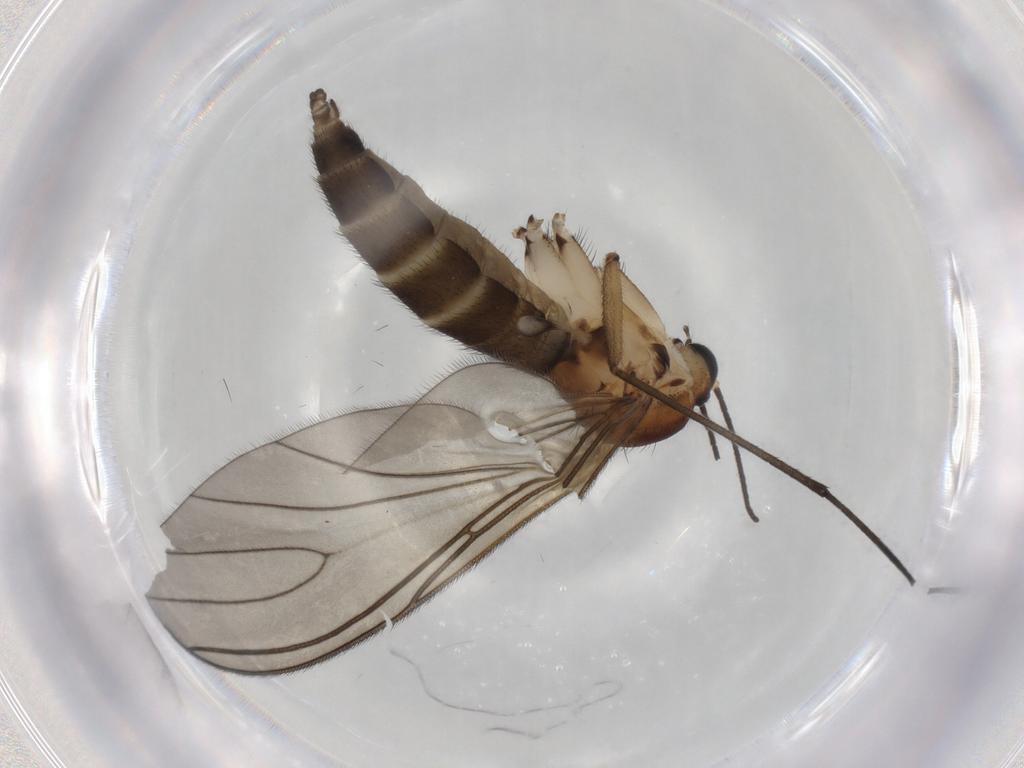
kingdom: Animalia
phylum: Arthropoda
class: Insecta
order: Diptera
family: Sciaridae
